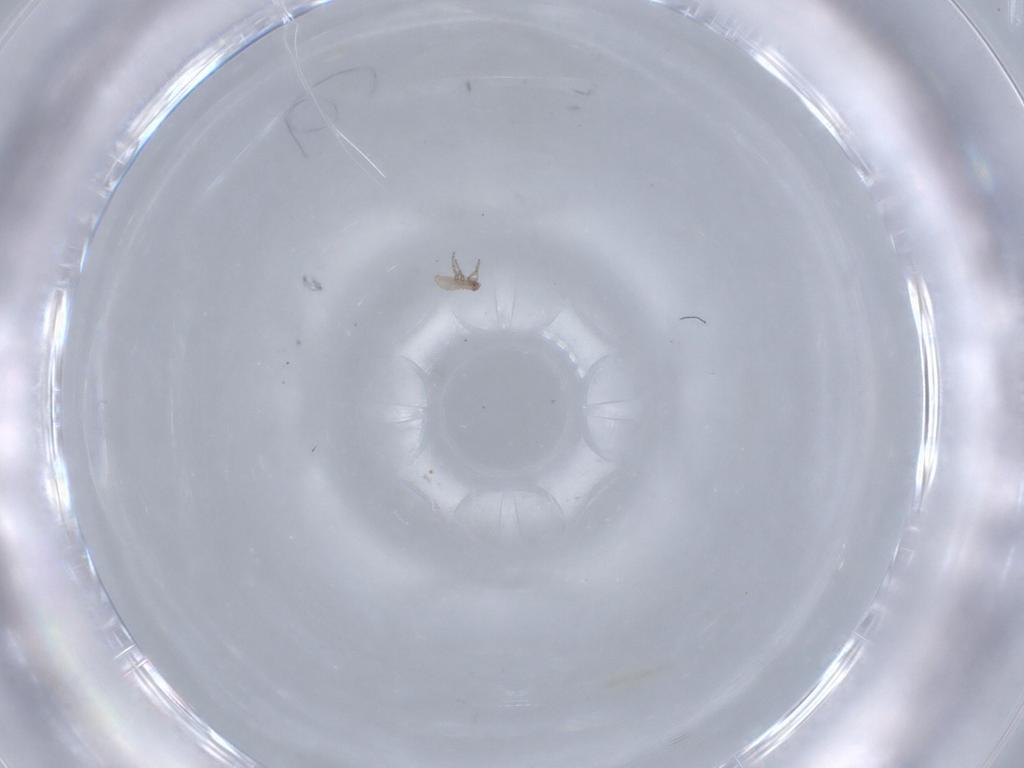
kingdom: Animalia
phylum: Arthropoda
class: Insecta
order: Hemiptera
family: Aphididae
